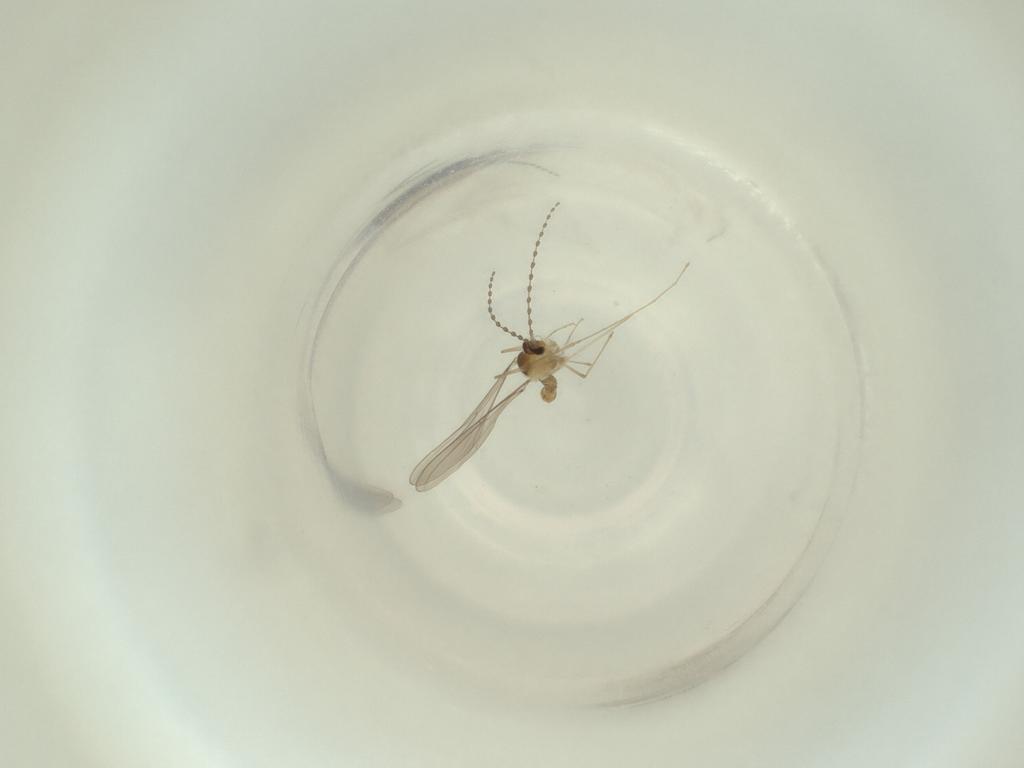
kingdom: Animalia
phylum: Arthropoda
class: Insecta
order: Diptera
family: Cecidomyiidae
